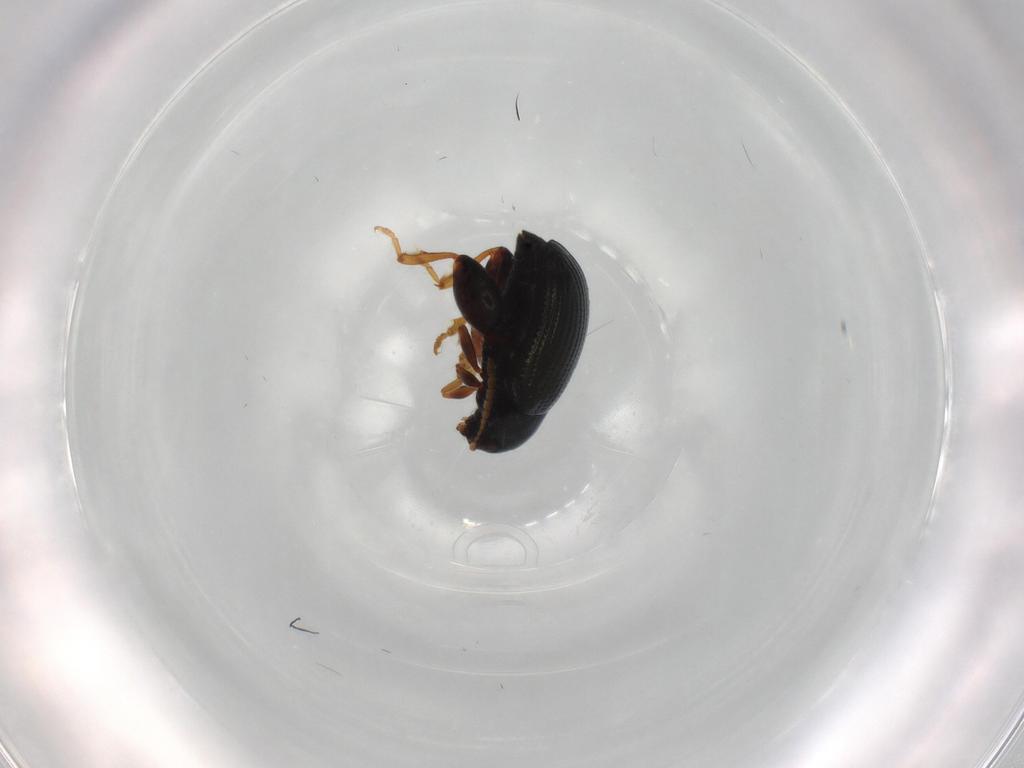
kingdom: Animalia
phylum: Arthropoda
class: Insecta
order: Coleoptera
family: Chrysomelidae
